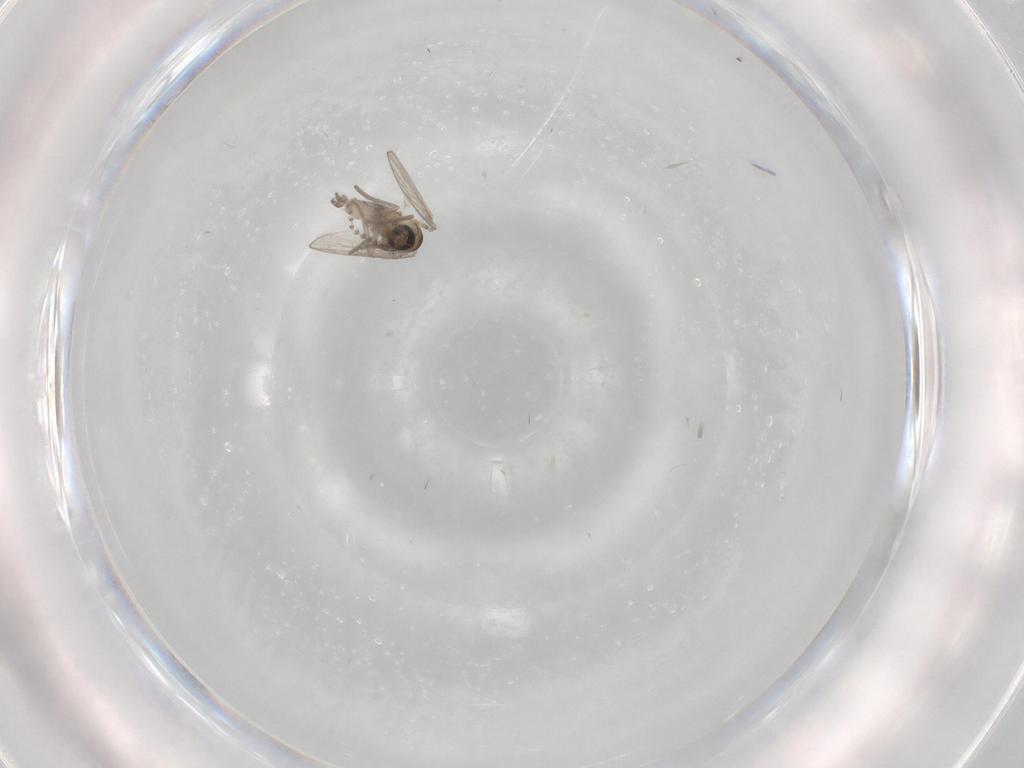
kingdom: Animalia
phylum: Arthropoda
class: Insecta
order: Diptera
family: Psychodidae
